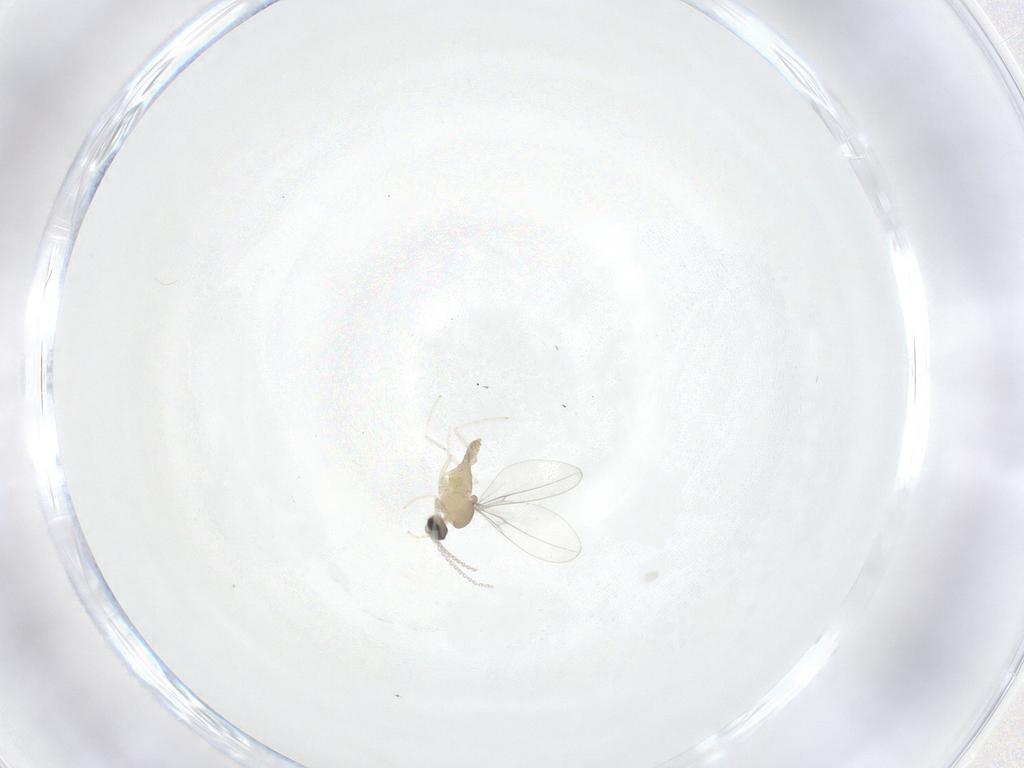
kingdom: Animalia
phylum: Arthropoda
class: Insecta
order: Diptera
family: Cecidomyiidae
